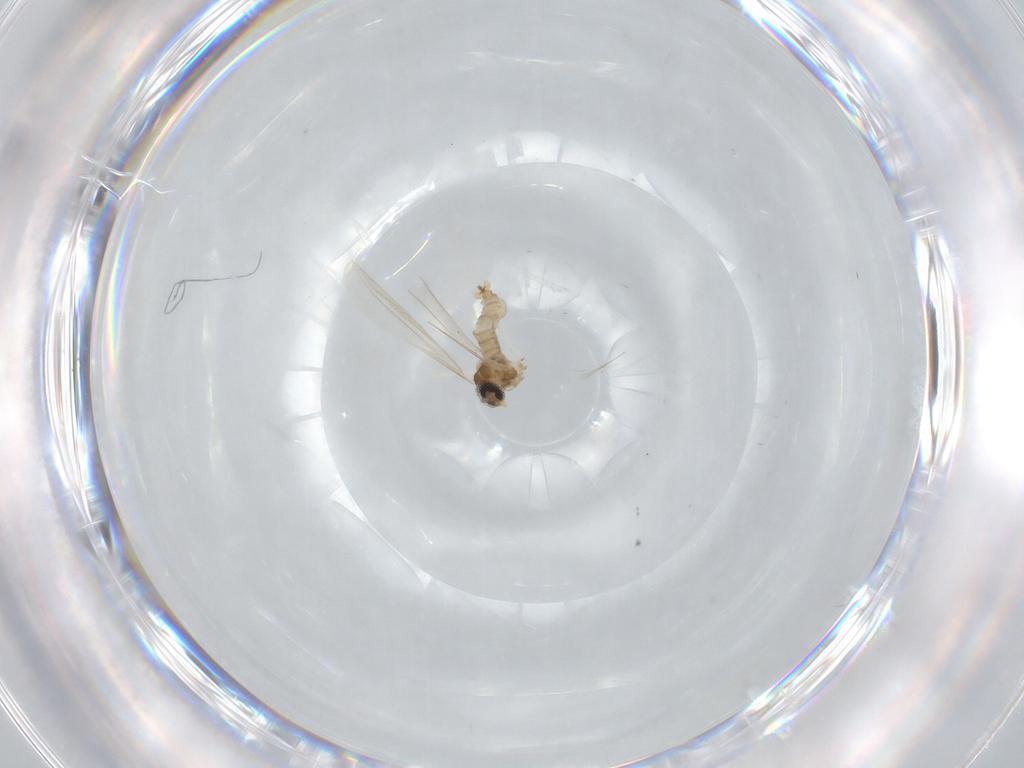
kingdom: Animalia
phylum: Arthropoda
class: Insecta
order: Diptera
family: Cecidomyiidae
